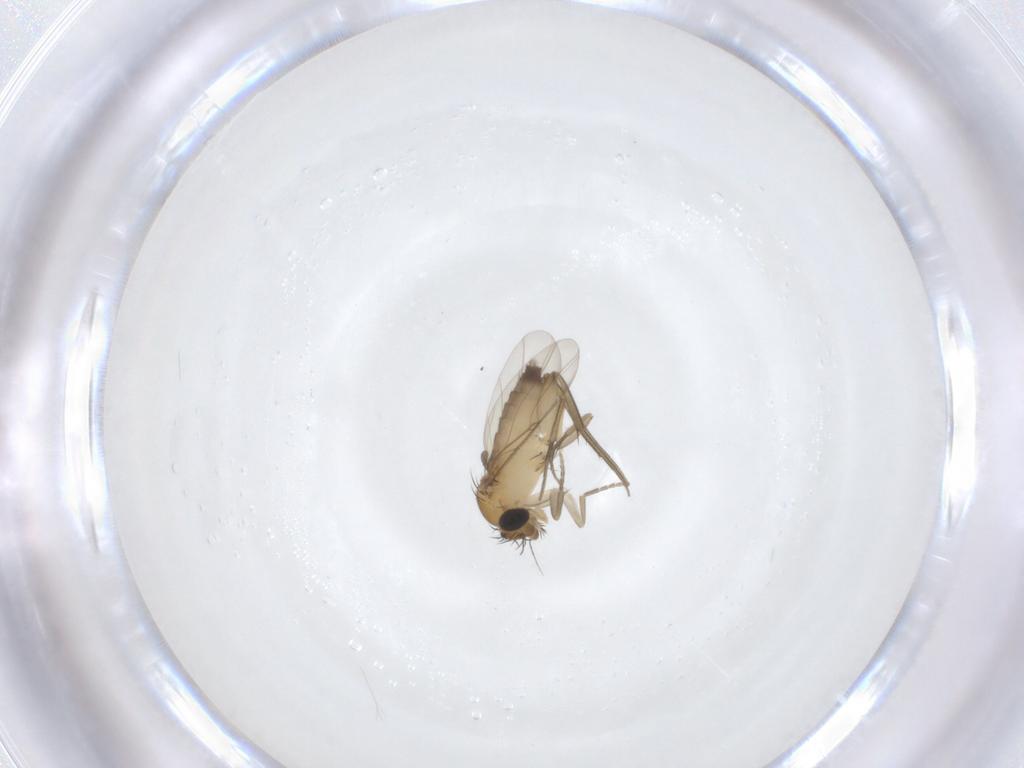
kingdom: Animalia
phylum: Arthropoda
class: Insecta
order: Diptera
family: Phoridae
